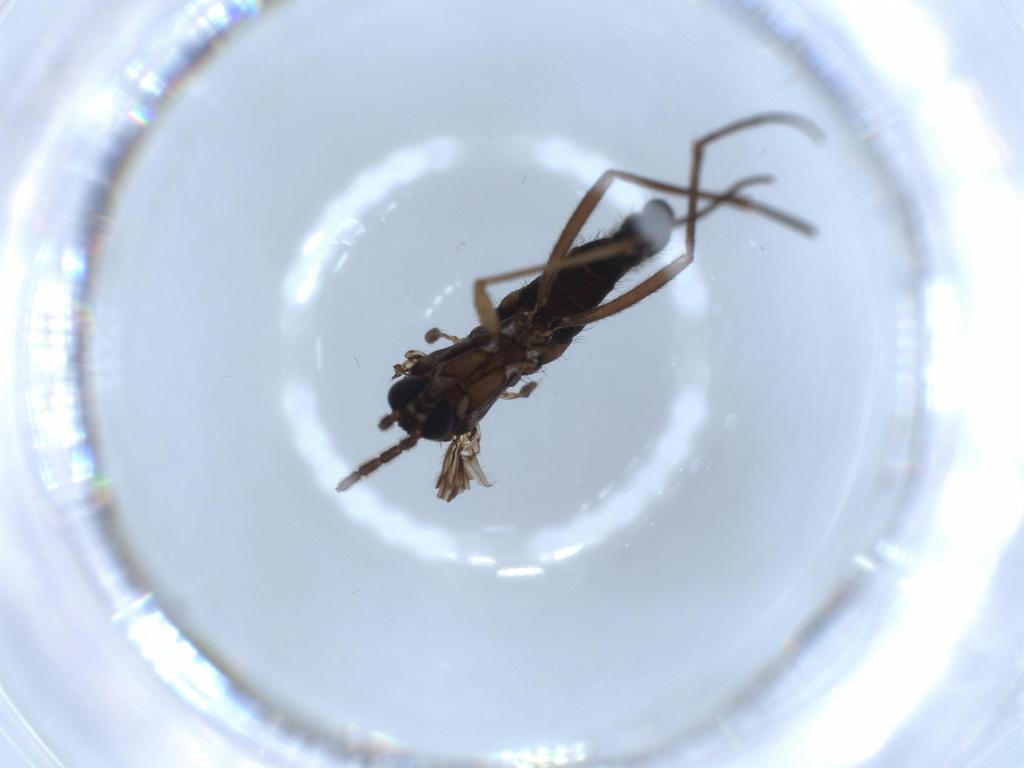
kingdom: Animalia
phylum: Arthropoda
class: Insecta
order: Diptera
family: Sciaridae
